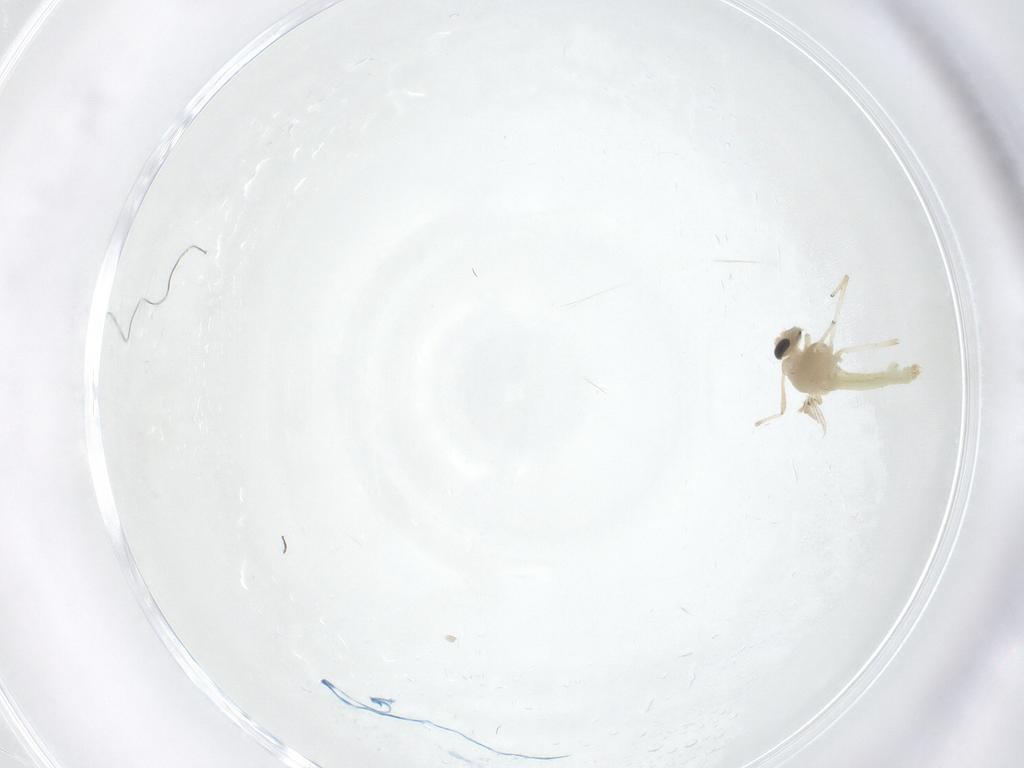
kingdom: Animalia
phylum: Arthropoda
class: Insecta
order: Diptera
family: Chironomidae
